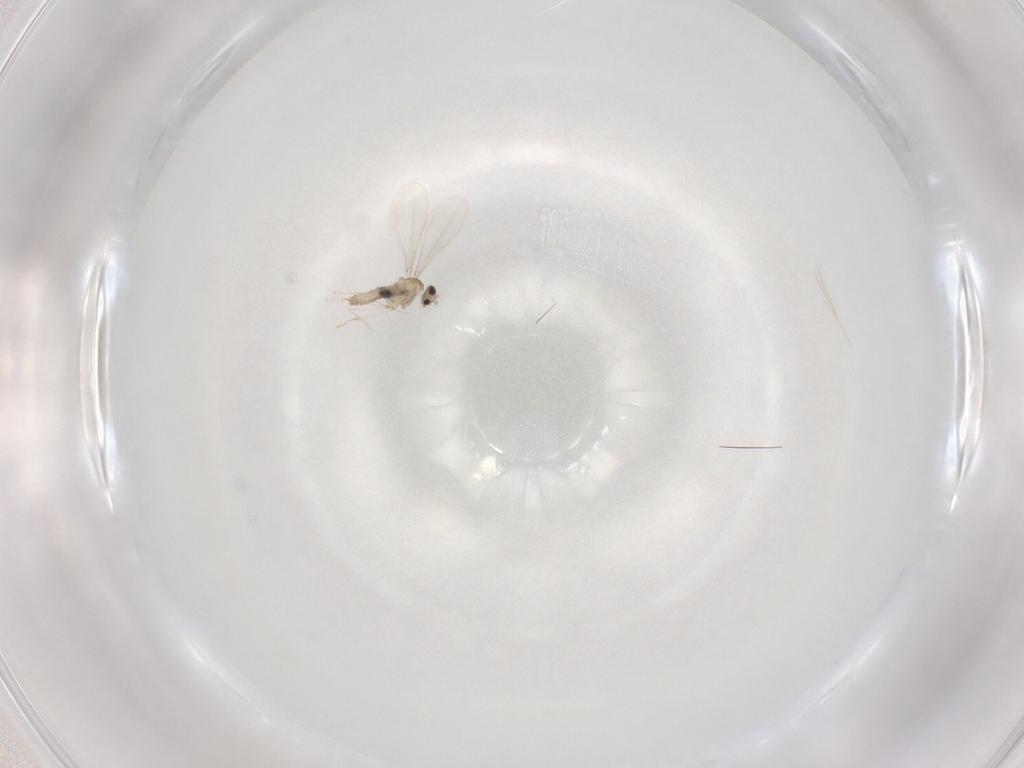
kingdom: Animalia
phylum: Arthropoda
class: Insecta
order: Diptera
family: Cecidomyiidae
